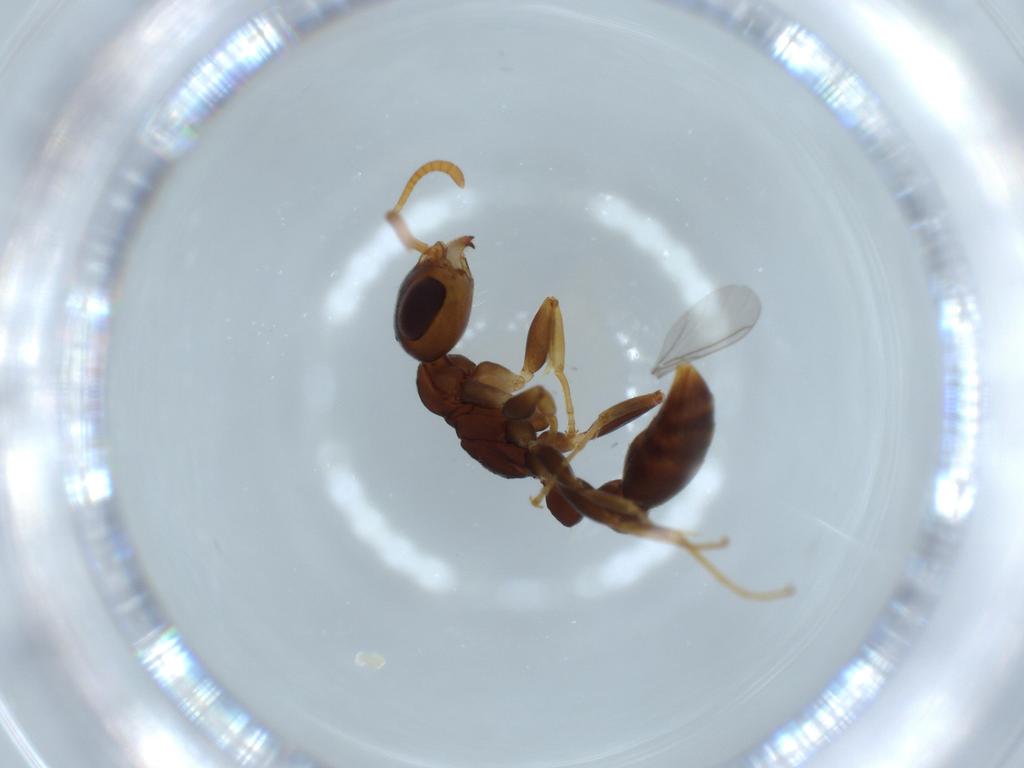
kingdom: Animalia
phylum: Arthropoda
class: Insecta
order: Hymenoptera
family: Formicidae
